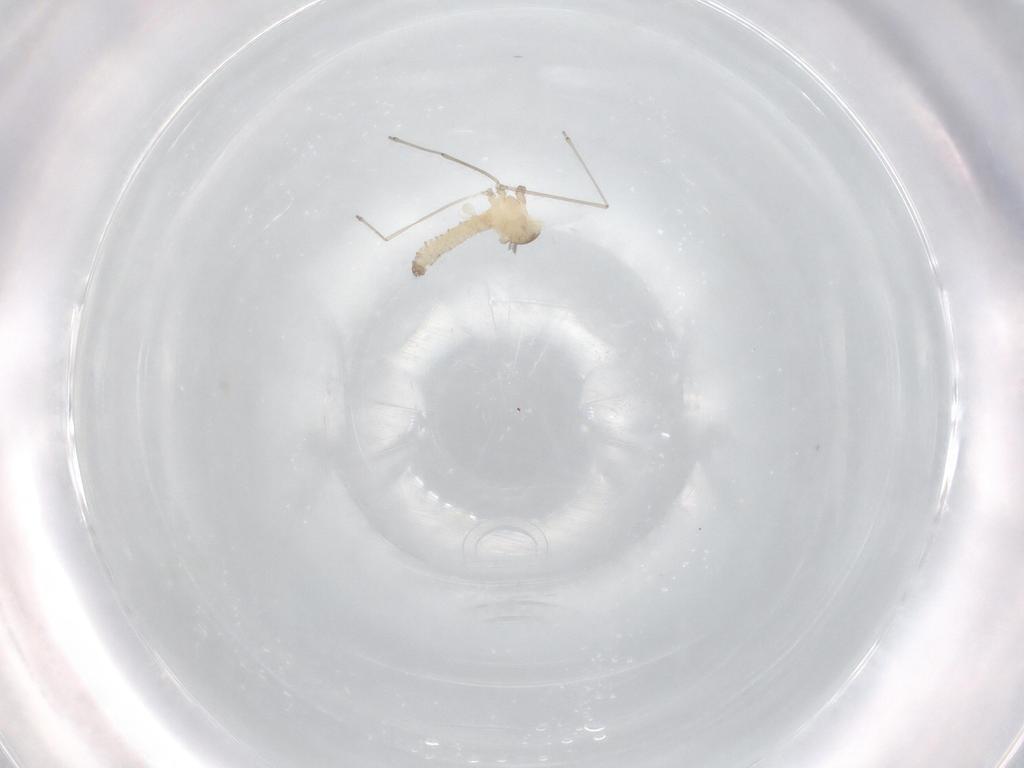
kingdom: Animalia
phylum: Arthropoda
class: Insecta
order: Diptera
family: Cecidomyiidae
